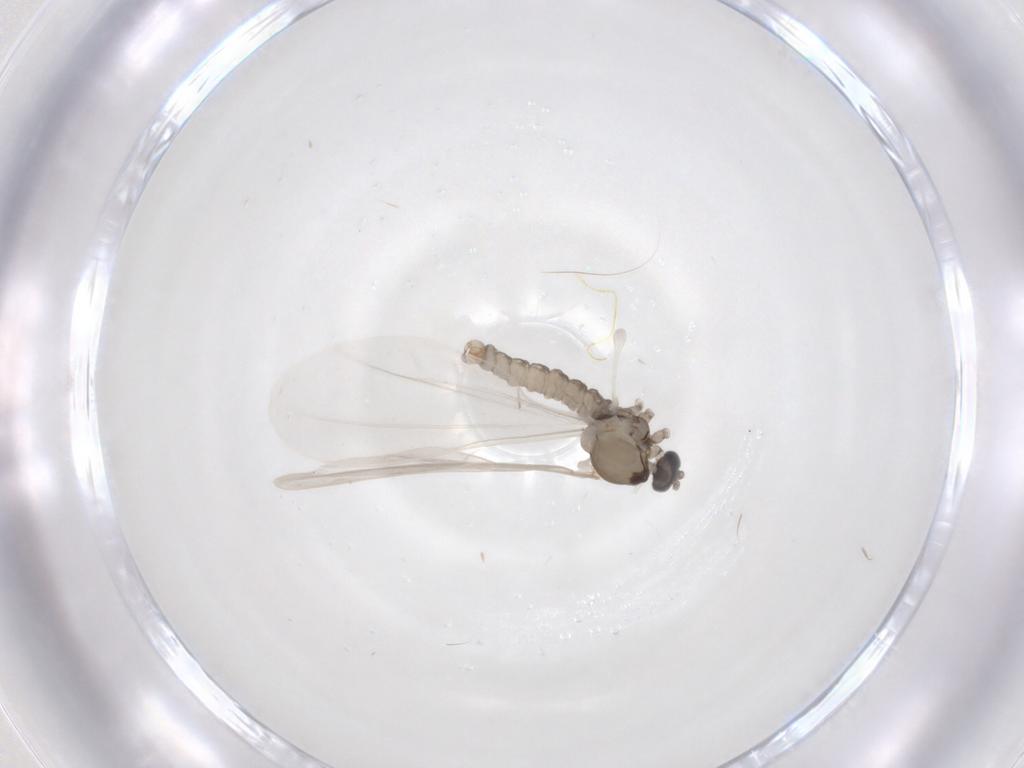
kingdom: Animalia
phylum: Arthropoda
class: Insecta
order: Diptera
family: Cecidomyiidae
